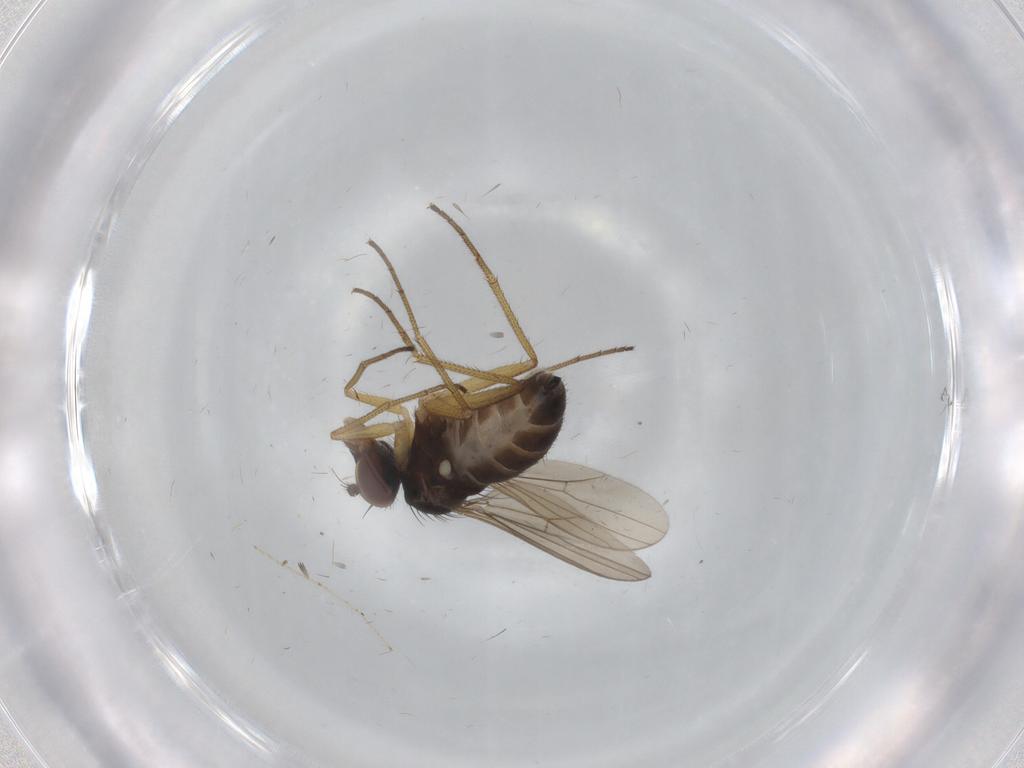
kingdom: Animalia
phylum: Arthropoda
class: Insecta
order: Diptera
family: Dolichopodidae
